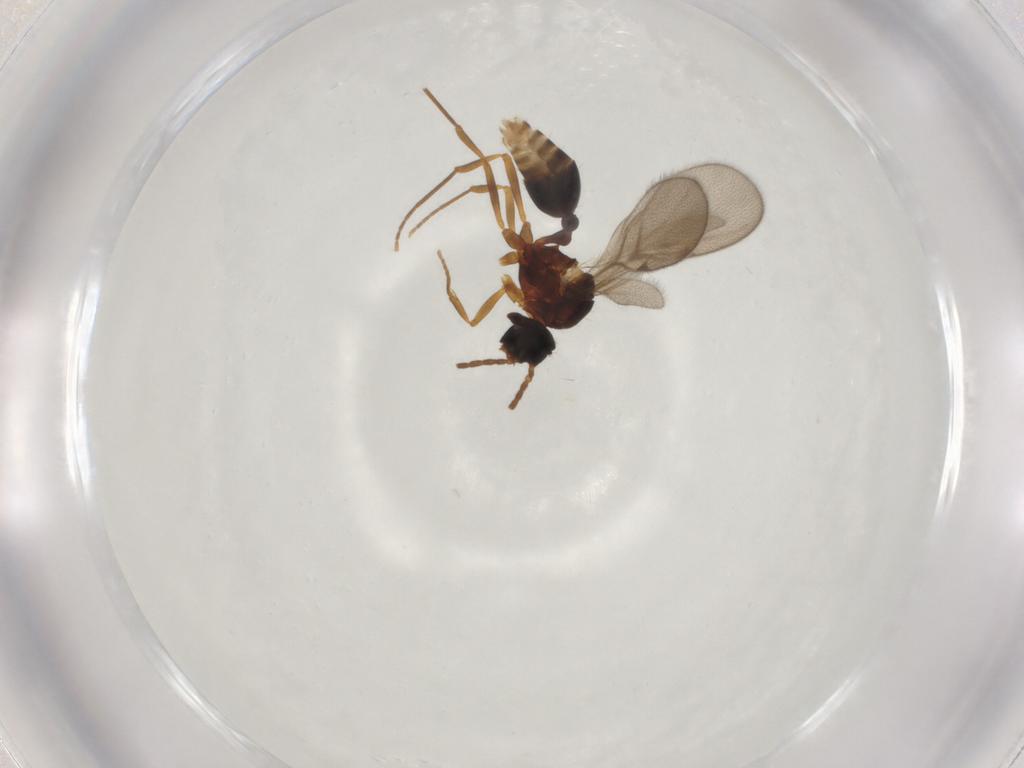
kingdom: Animalia
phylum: Arthropoda
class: Insecta
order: Hymenoptera
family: Formicidae
